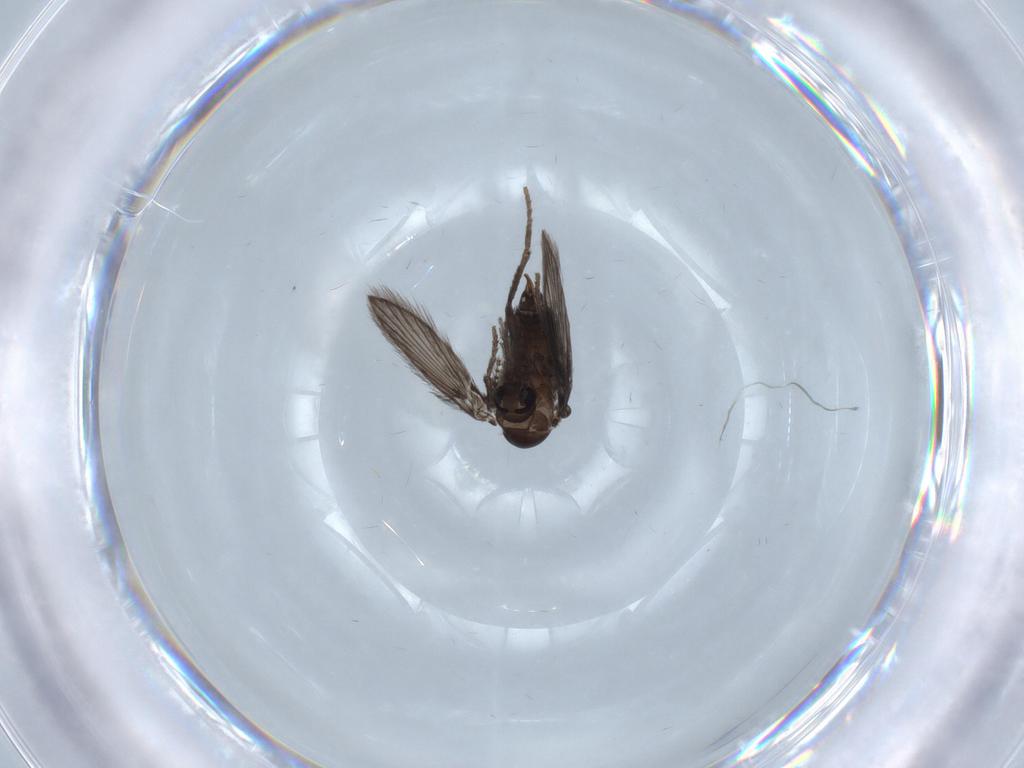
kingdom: Animalia
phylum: Arthropoda
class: Insecta
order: Diptera
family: Psychodidae
